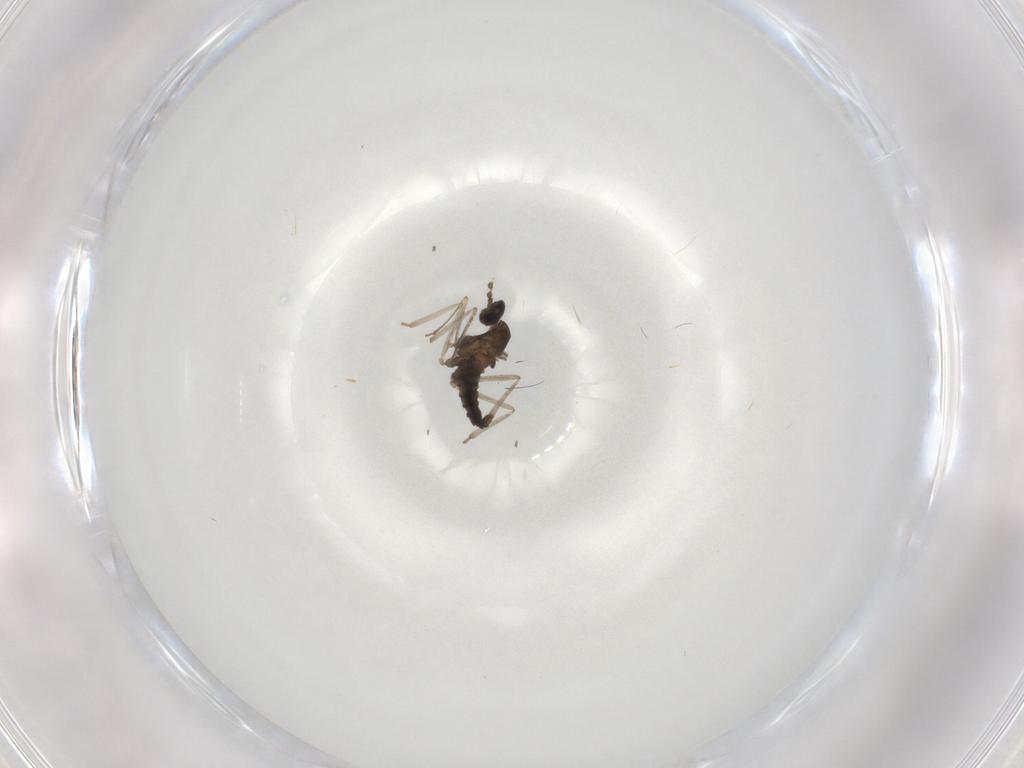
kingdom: Animalia
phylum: Arthropoda
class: Insecta
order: Diptera
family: Cecidomyiidae
